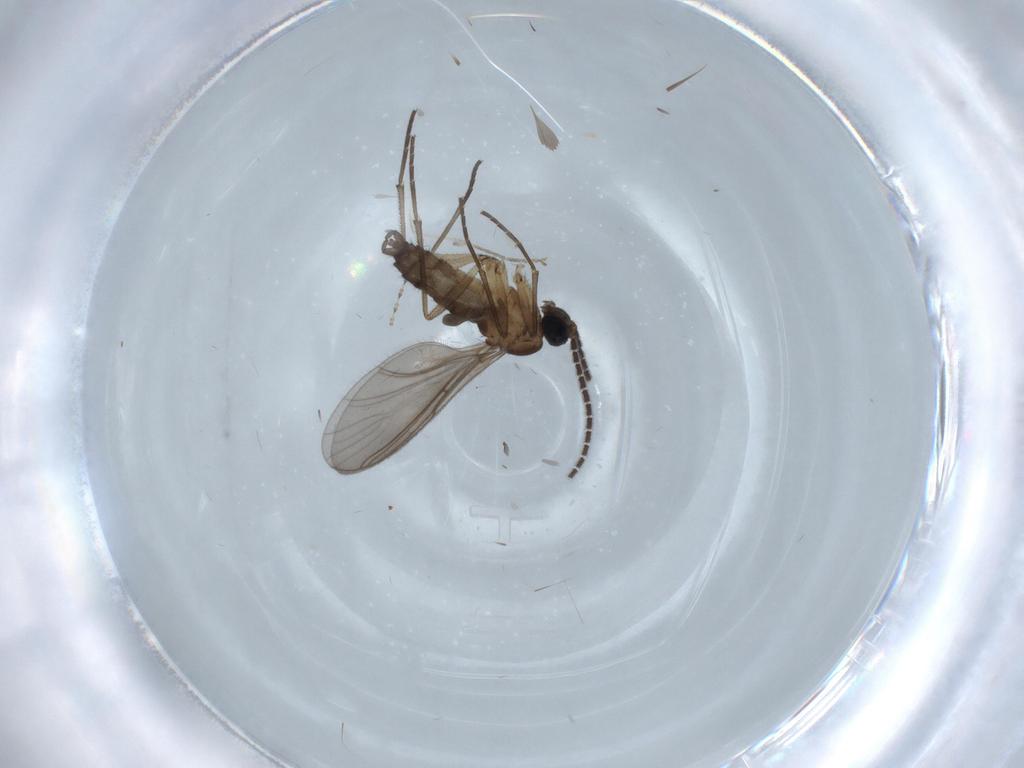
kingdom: Animalia
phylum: Arthropoda
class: Insecta
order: Diptera
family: Sciaridae
